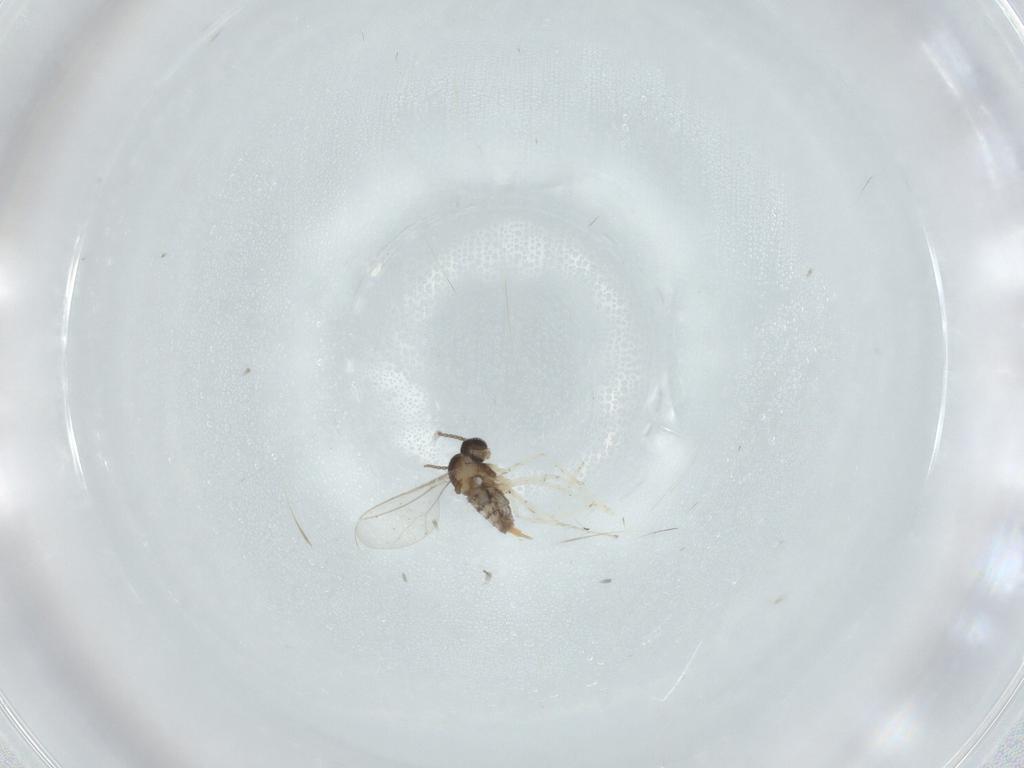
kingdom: Animalia
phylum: Arthropoda
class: Insecta
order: Diptera
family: Cecidomyiidae
